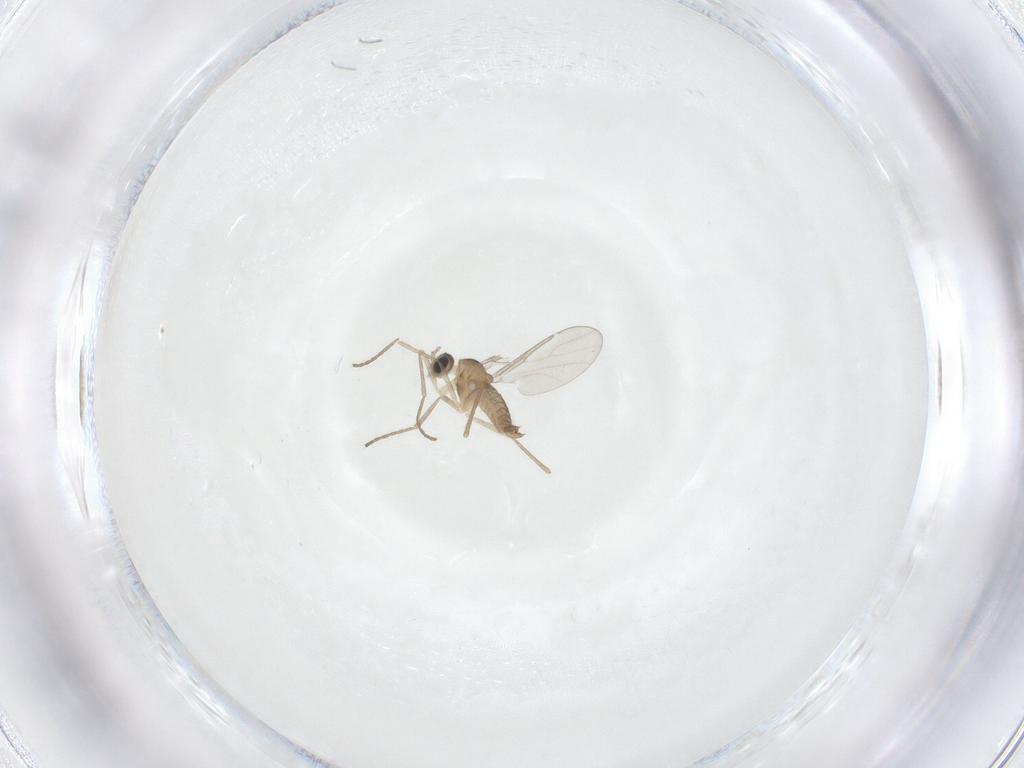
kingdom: Animalia
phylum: Arthropoda
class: Insecta
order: Diptera
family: Cecidomyiidae
